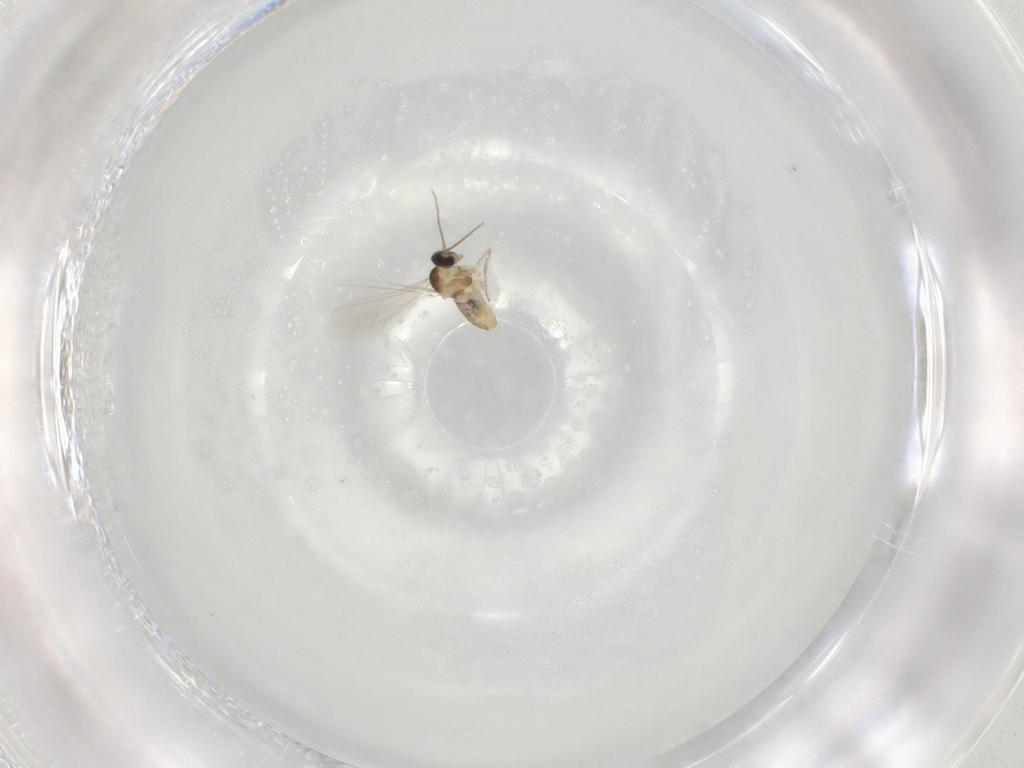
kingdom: Animalia
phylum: Arthropoda
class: Insecta
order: Diptera
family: Cecidomyiidae
